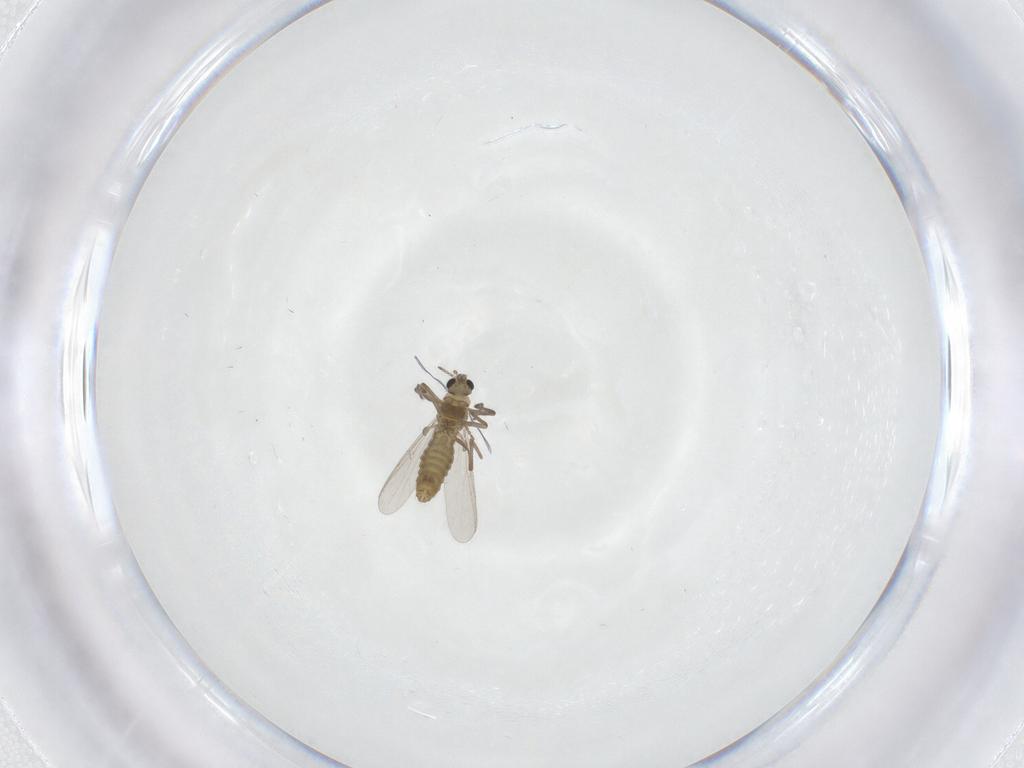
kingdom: Animalia
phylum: Arthropoda
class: Insecta
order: Diptera
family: Chironomidae
